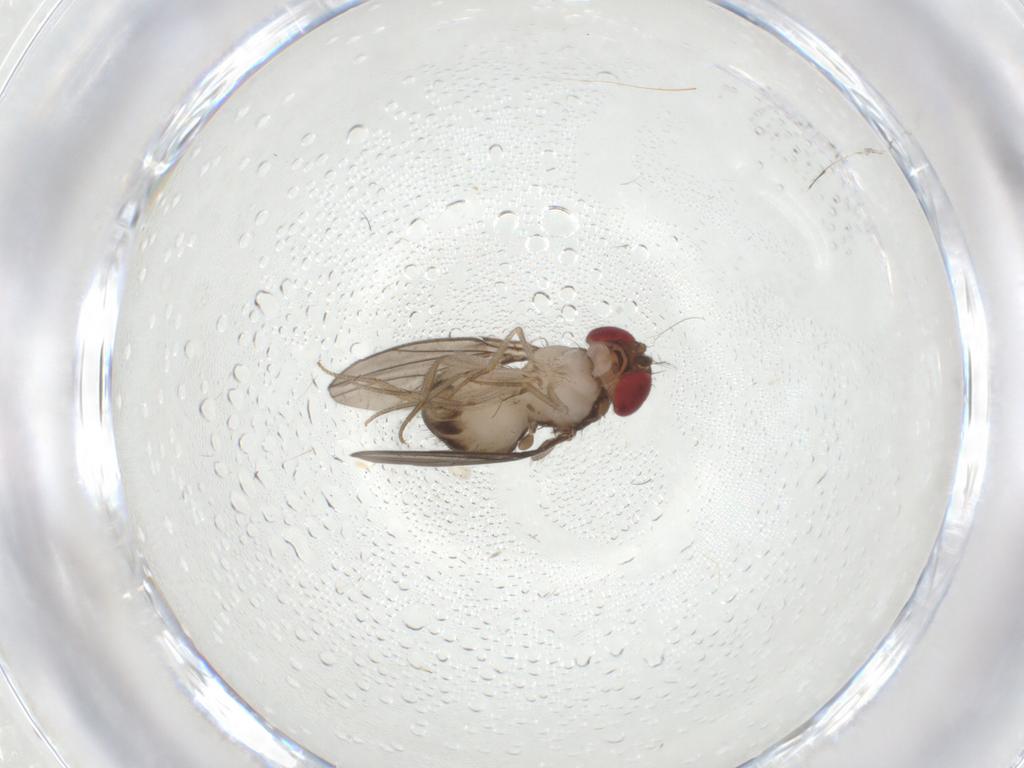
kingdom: Animalia
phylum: Arthropoda
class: Insecta
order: Diptera
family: Drosophilidae
